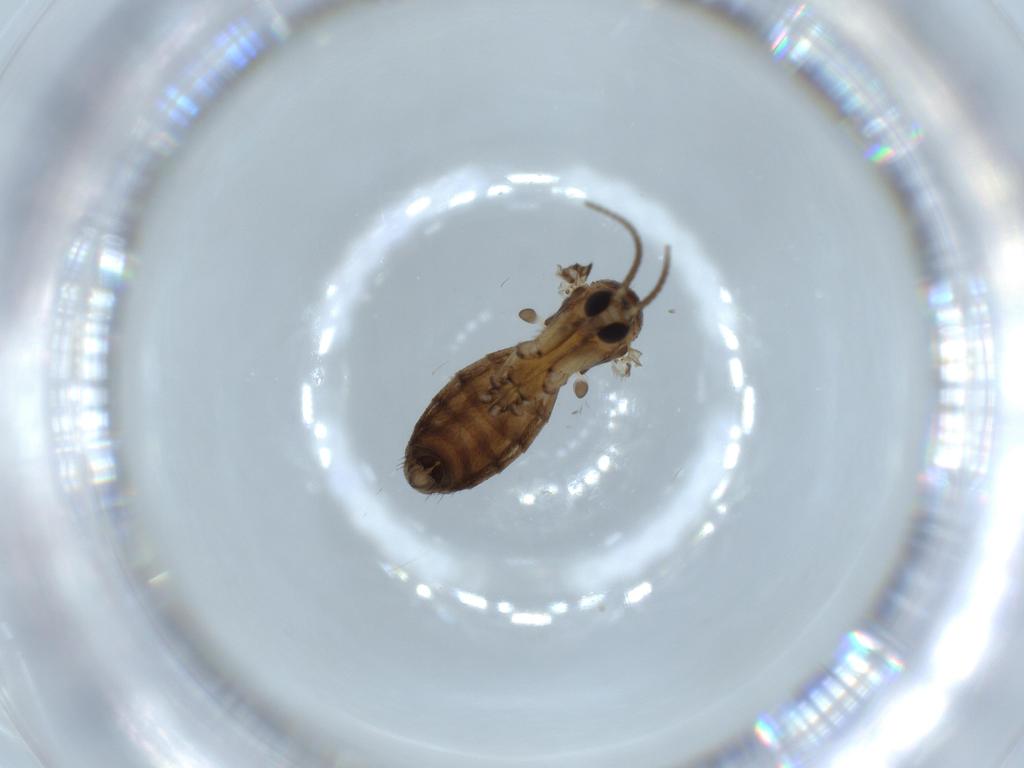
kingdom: Animalia
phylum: Arthropoda
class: Insecta
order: Diptera
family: Mycetophilidae
